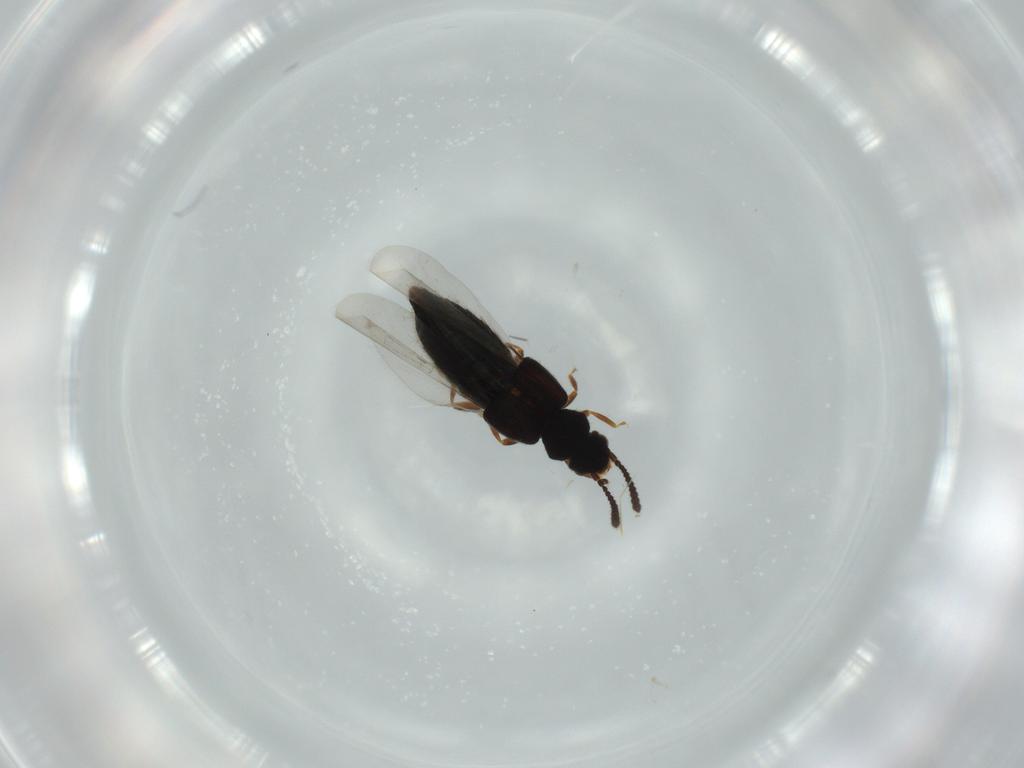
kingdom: Animalia
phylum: Arthropoda
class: Insecta
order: Coleoptera
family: Staphylinidae
